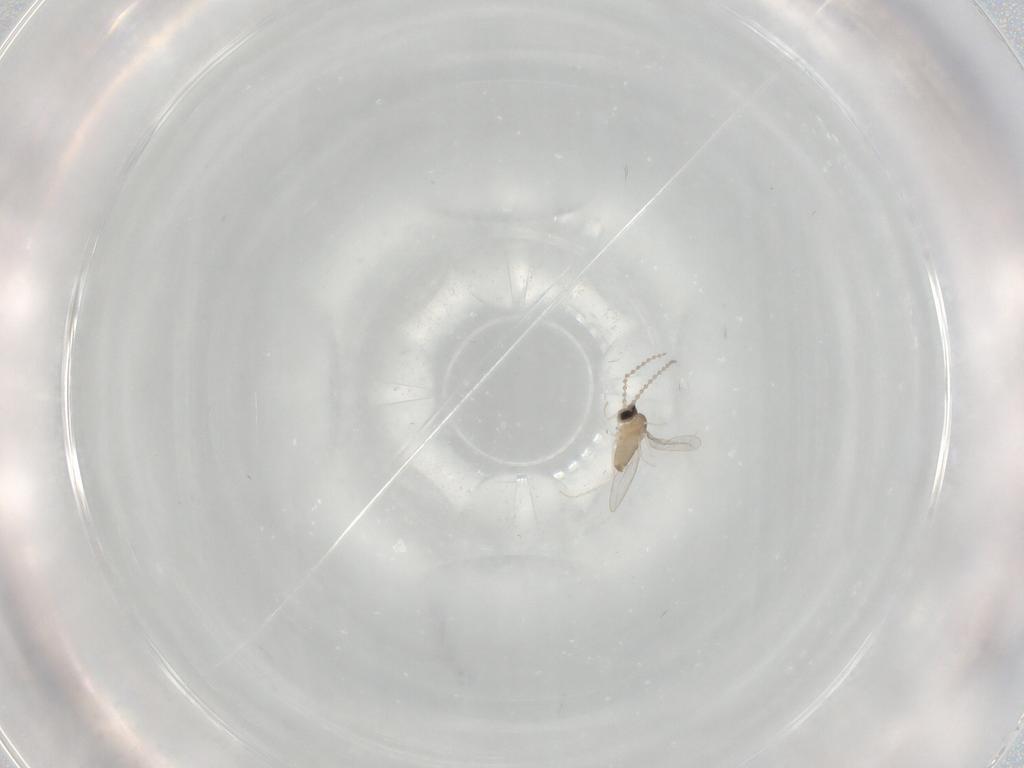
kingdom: Animalia
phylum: Arthropoda
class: Insecta
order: Diptera
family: Cecidomyiidae
